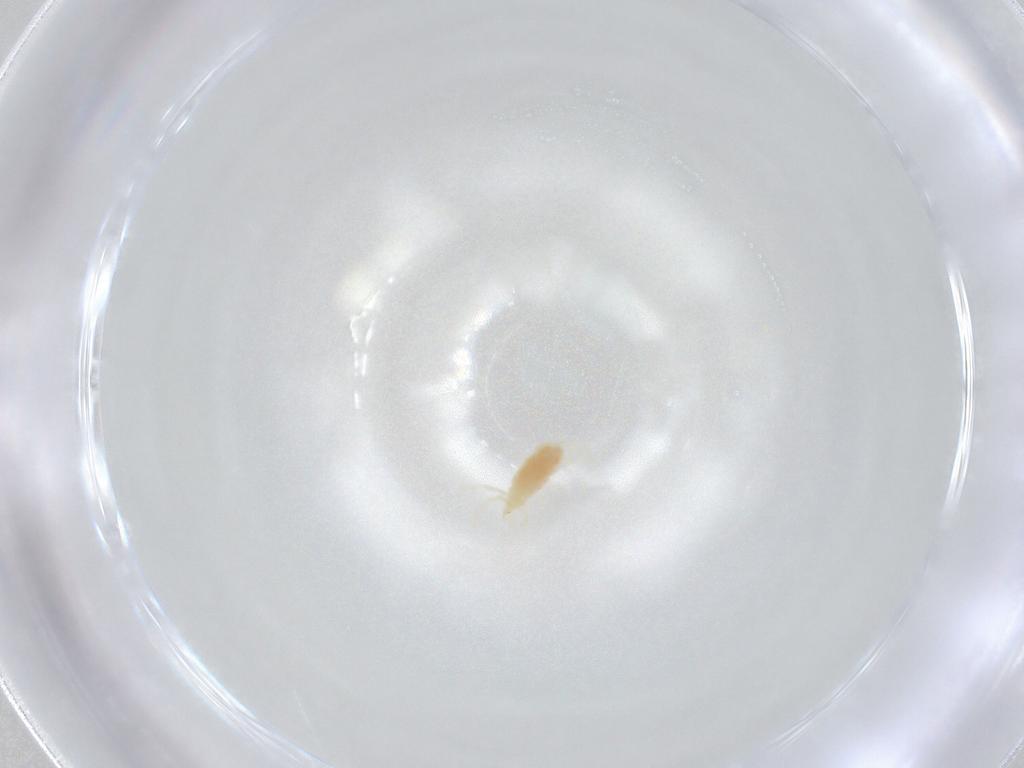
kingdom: Animalia
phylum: Arthropoda
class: Arachnida
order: Trombidiformes
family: Erythraeidae
